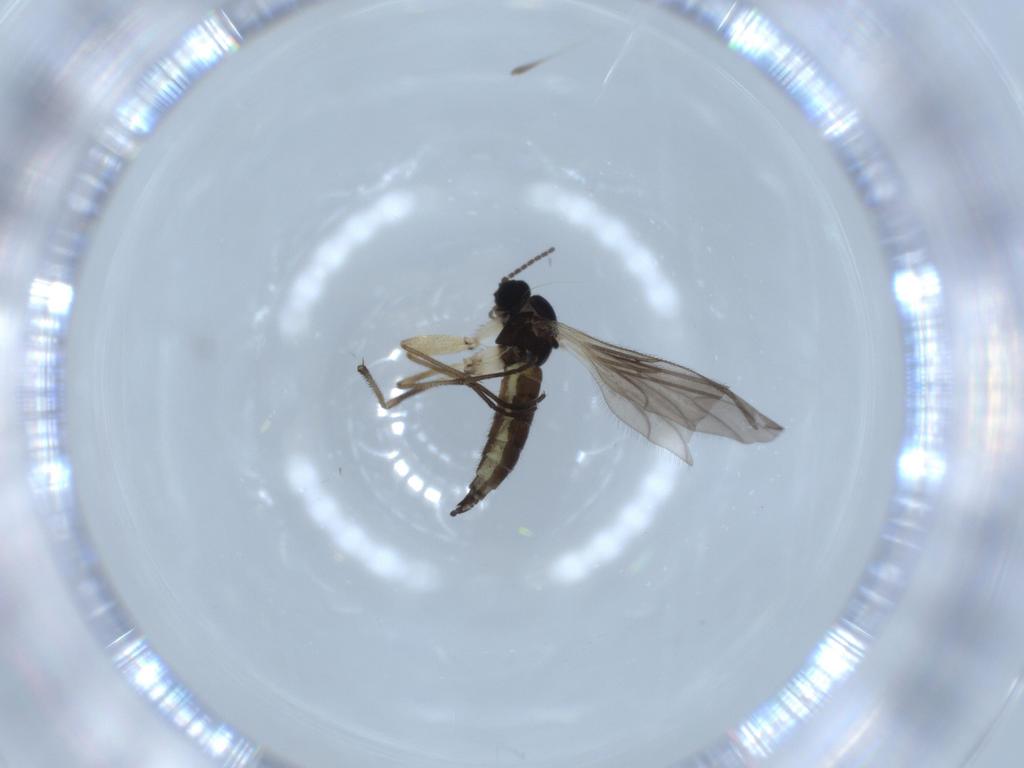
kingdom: Animalia
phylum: Arthropoda
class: Insecta
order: Diptera
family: Sciaridae
